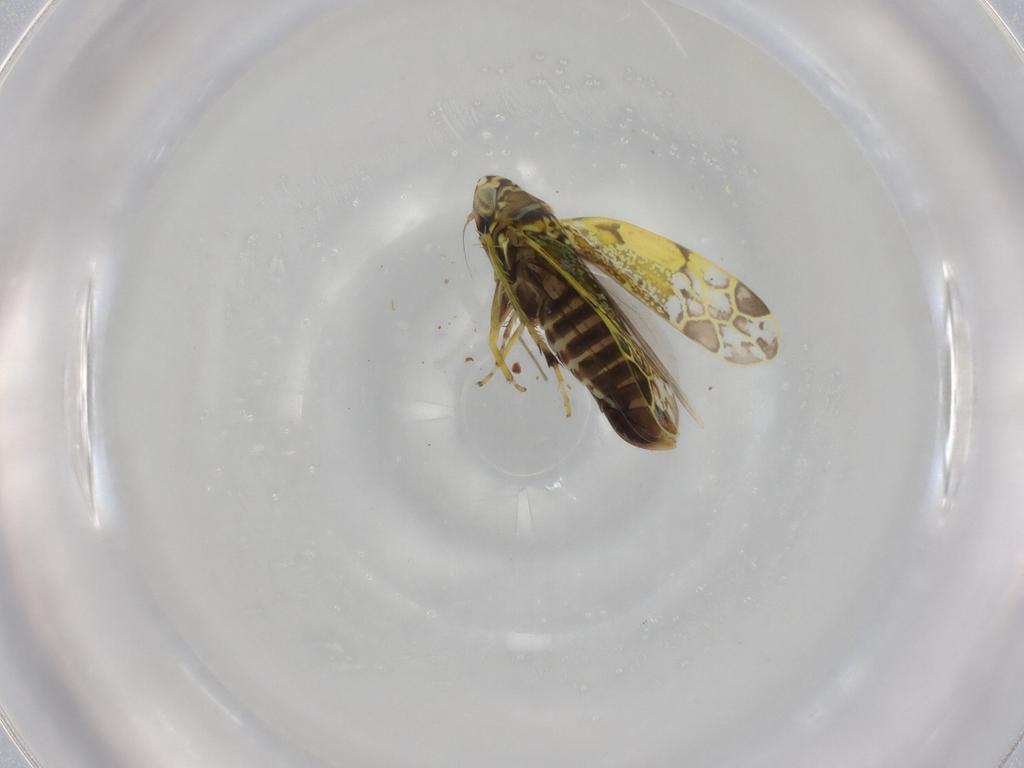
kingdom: Animalia
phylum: Arthropoda
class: Insecta
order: Hemiptera
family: Cicadellidae
